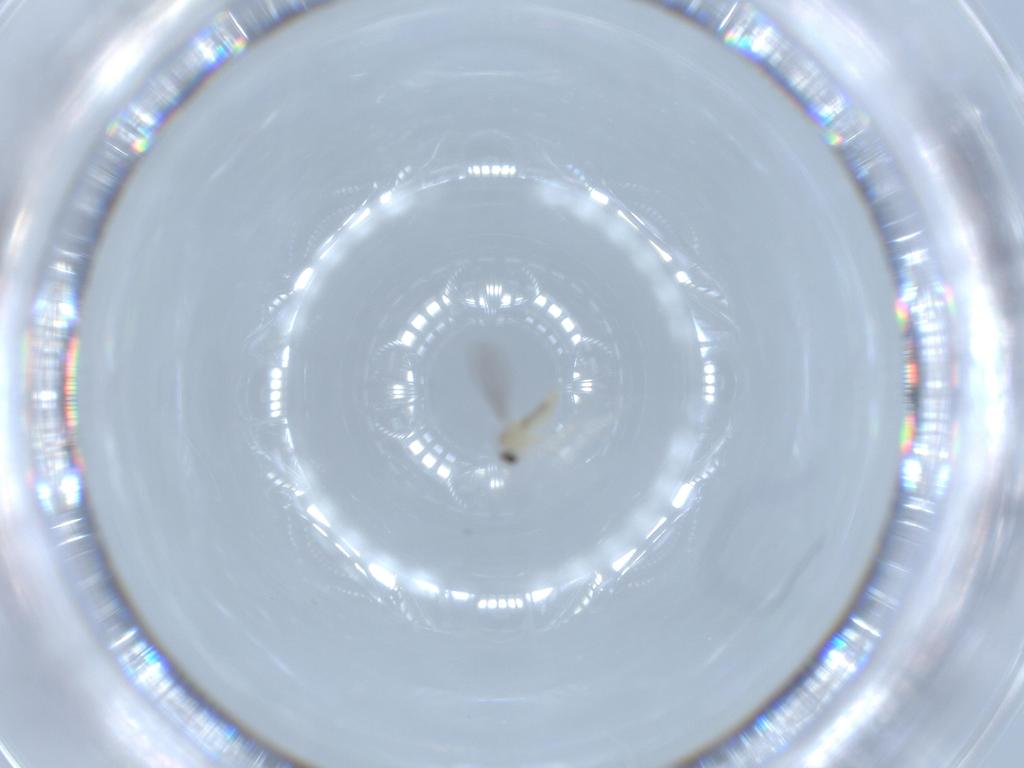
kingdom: Animalia
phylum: Arthropoda
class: Insecta
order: Diptera
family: Cecidomyiidae
